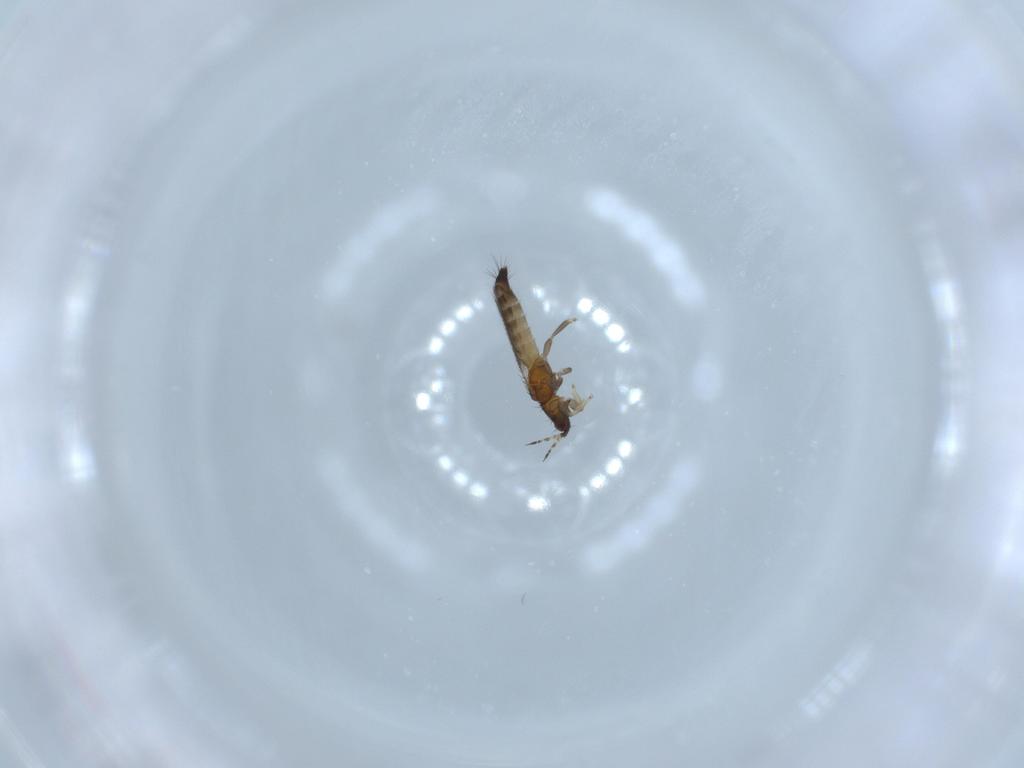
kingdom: Animalia
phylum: Arthropoda
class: Insecta
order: Thysanoptera
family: Thripidae
